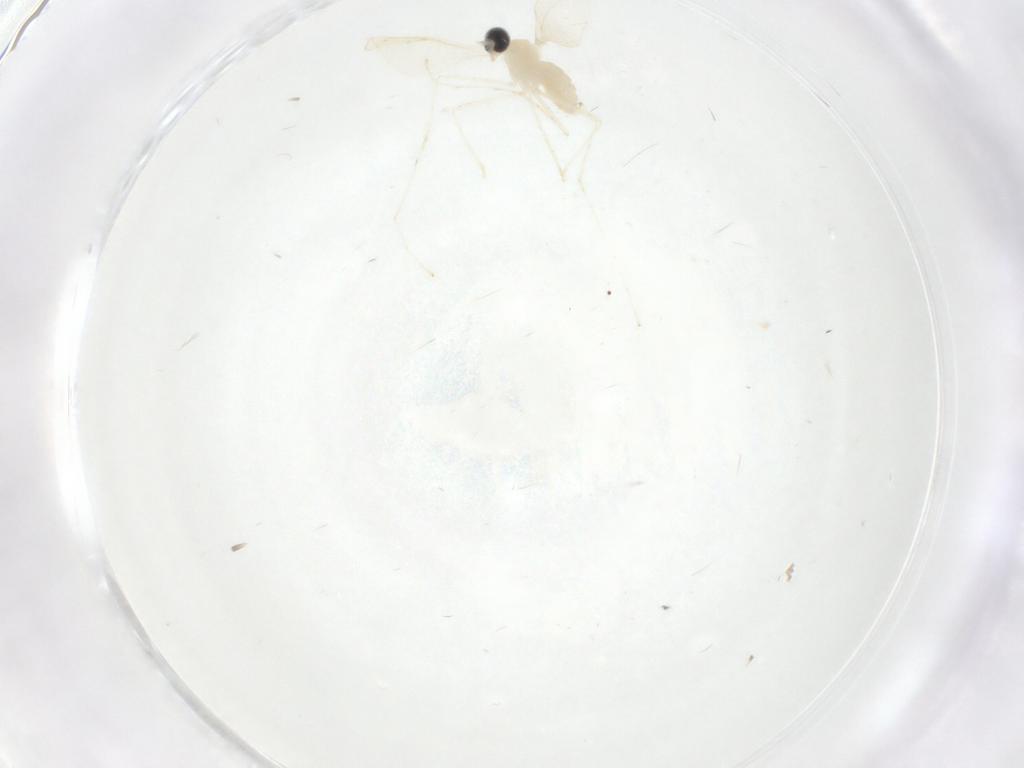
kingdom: Animalia
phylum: Arthropoda
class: Insecta
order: Diptera
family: Cecidomyiidae
